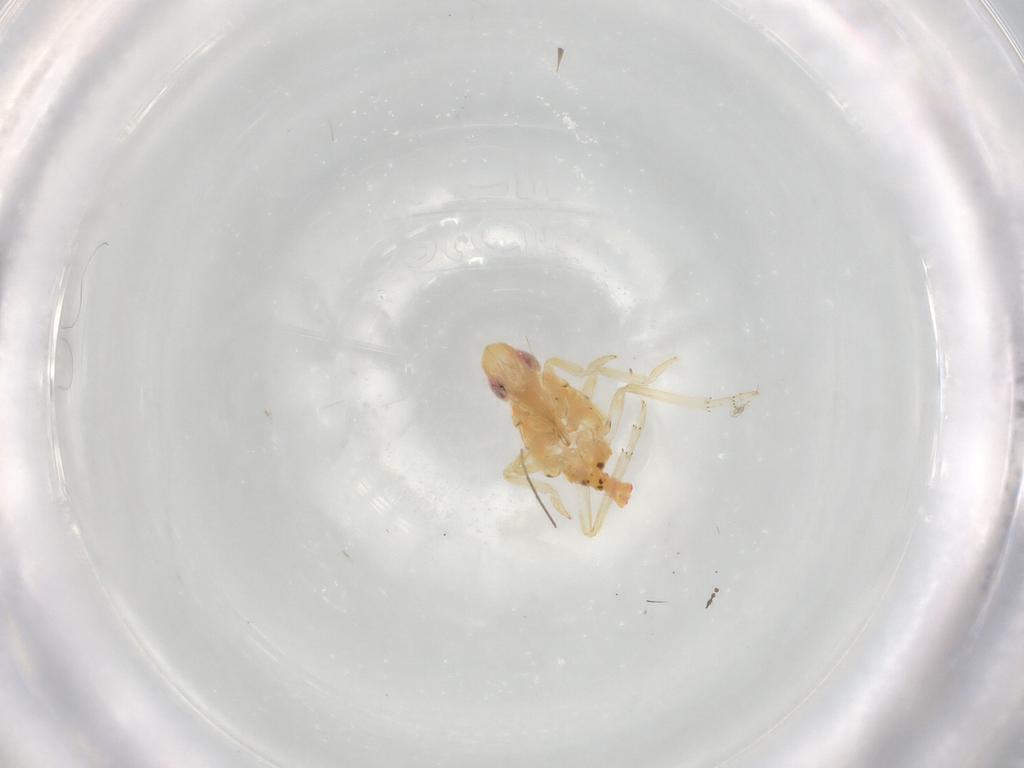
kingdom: Animalia
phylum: Arthropoda
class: Insecta
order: Hemiptera
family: Tropiduchidae
